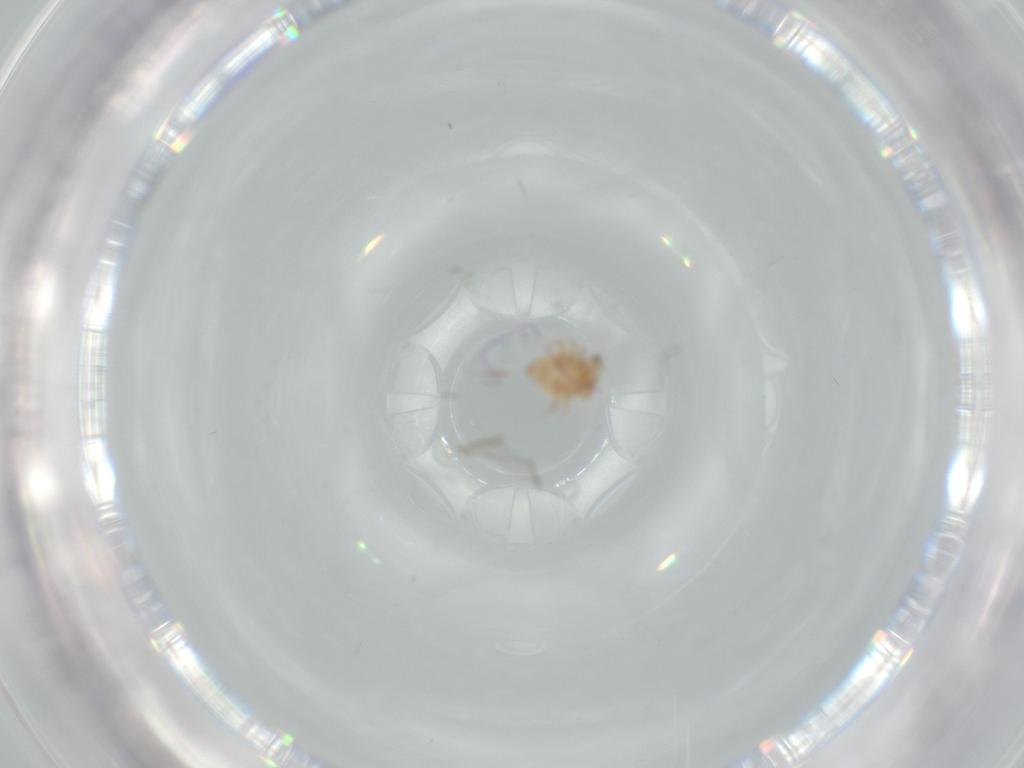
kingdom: Animalia
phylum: Arthropoda
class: Arachnida
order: Mesostigmata
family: Dithinozerconidae
